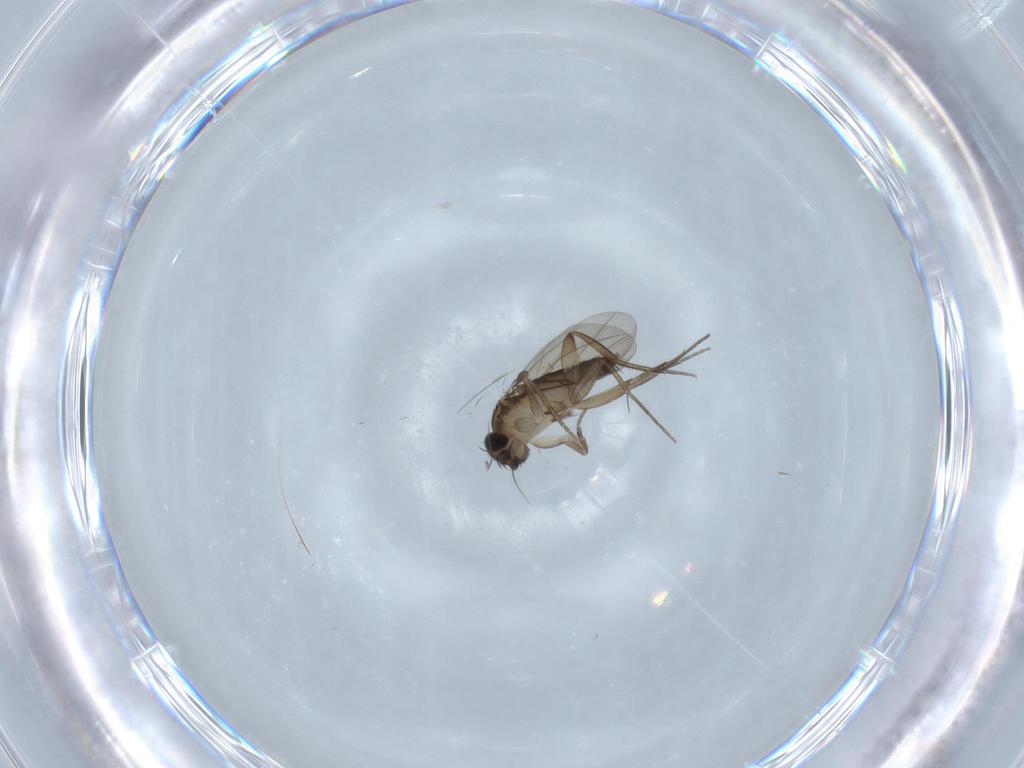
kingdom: Animalia
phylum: Arthropoda
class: Insecta
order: Diptera
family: Phoridae
